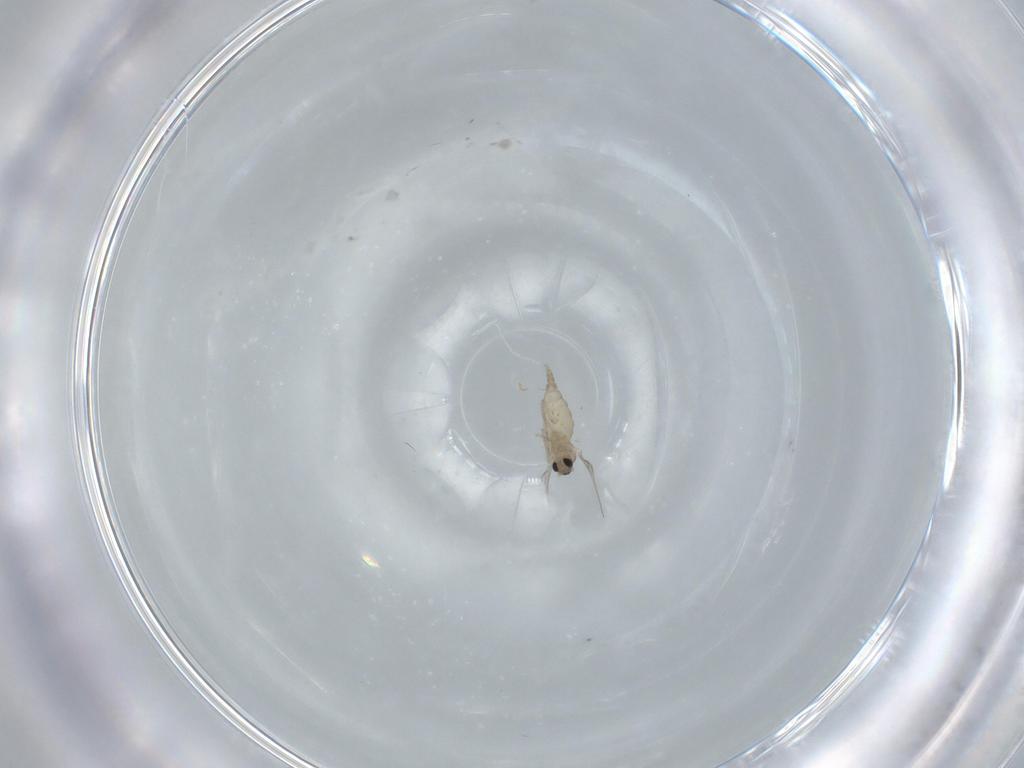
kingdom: Animalia
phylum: Arthropoda
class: Insecta
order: Diptera
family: Cecidomyiidae
